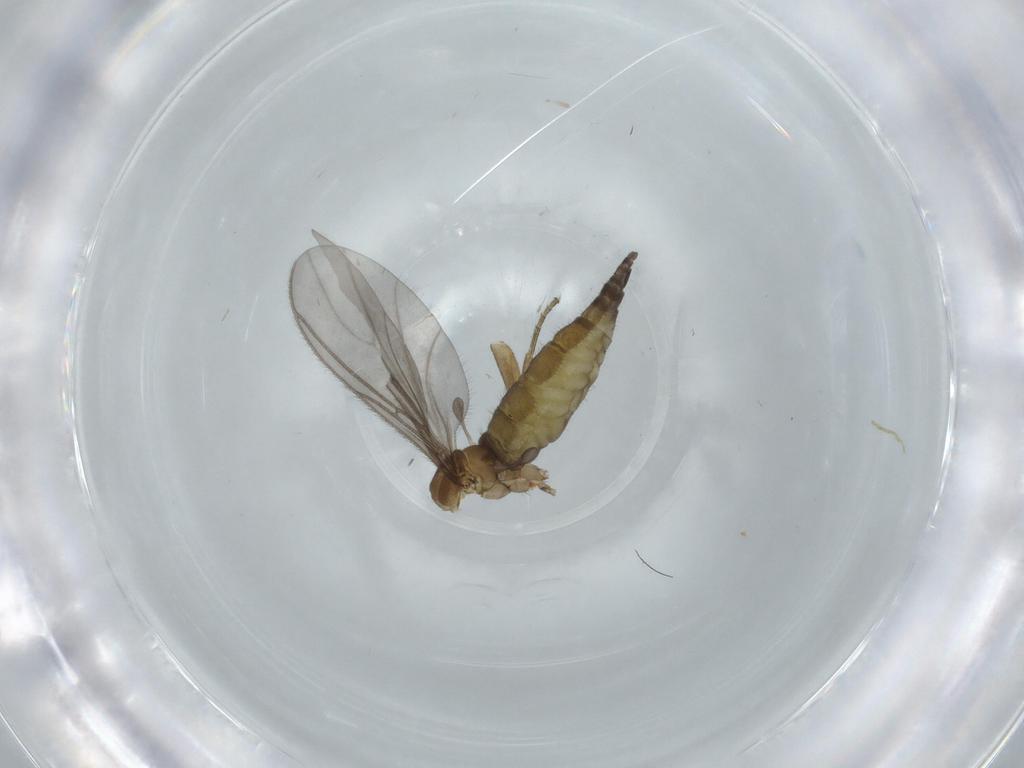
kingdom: Animalia
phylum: Arthropoda
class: Insecta
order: Diptera
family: Phoridae
